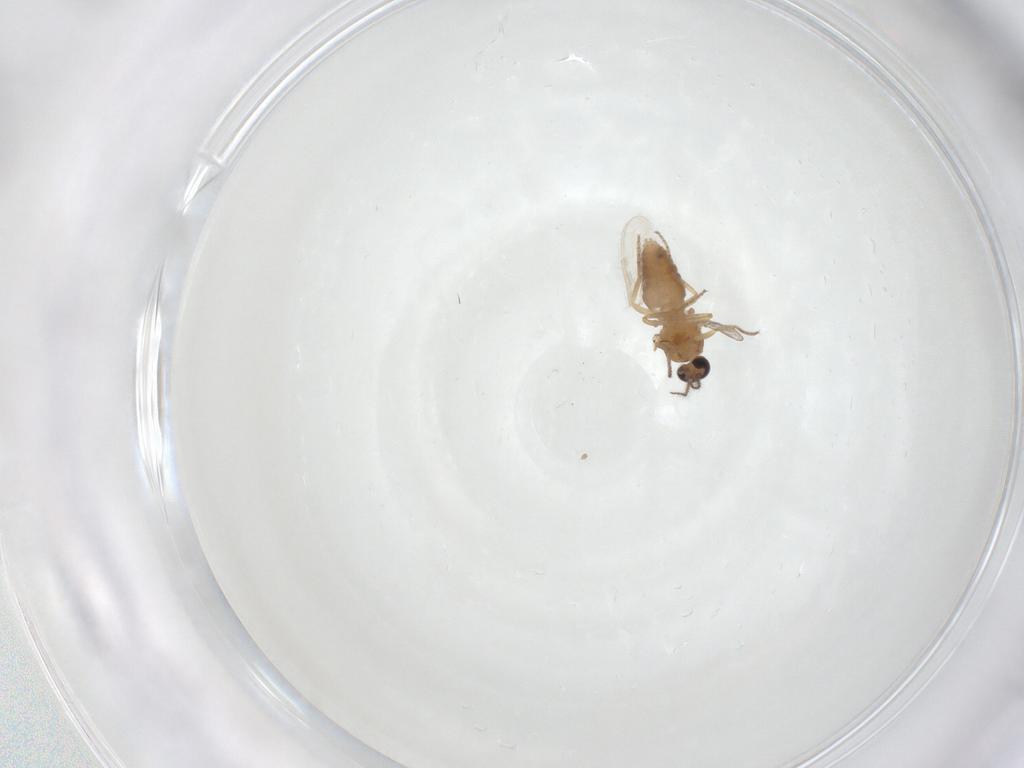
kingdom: Animalia
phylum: Arthropoda
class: Insecta
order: Diptera
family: Ceratopogonidae
